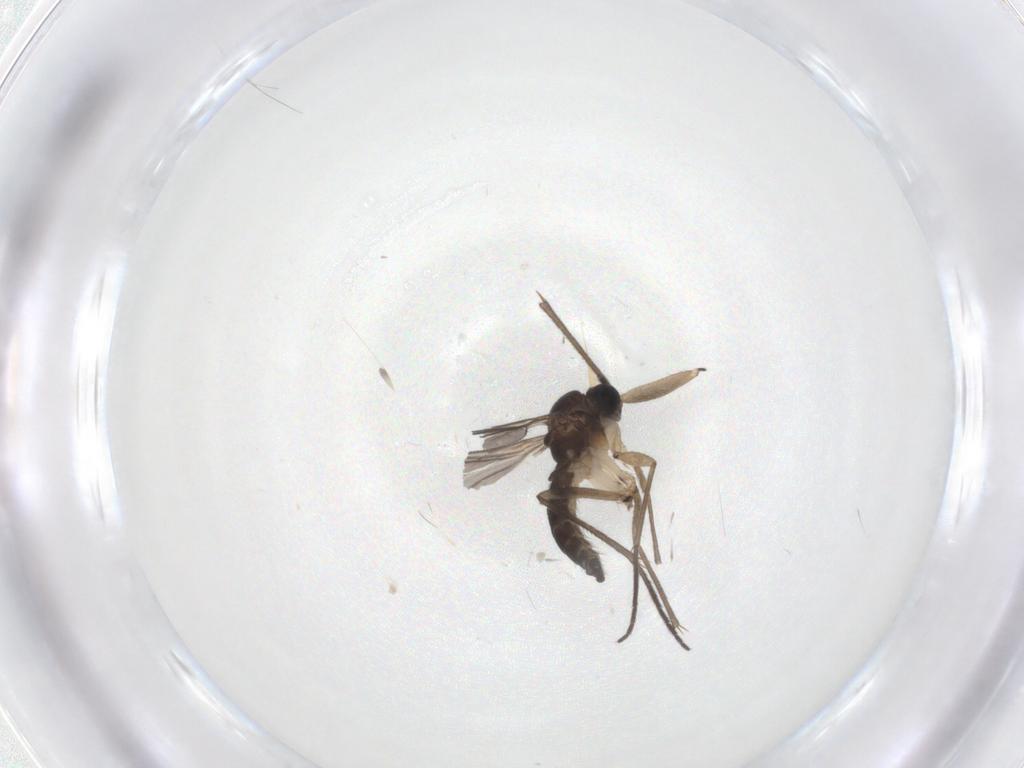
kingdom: Animalia
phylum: Arthropoda
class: Insecta
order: Diptera
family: Sciaridae
